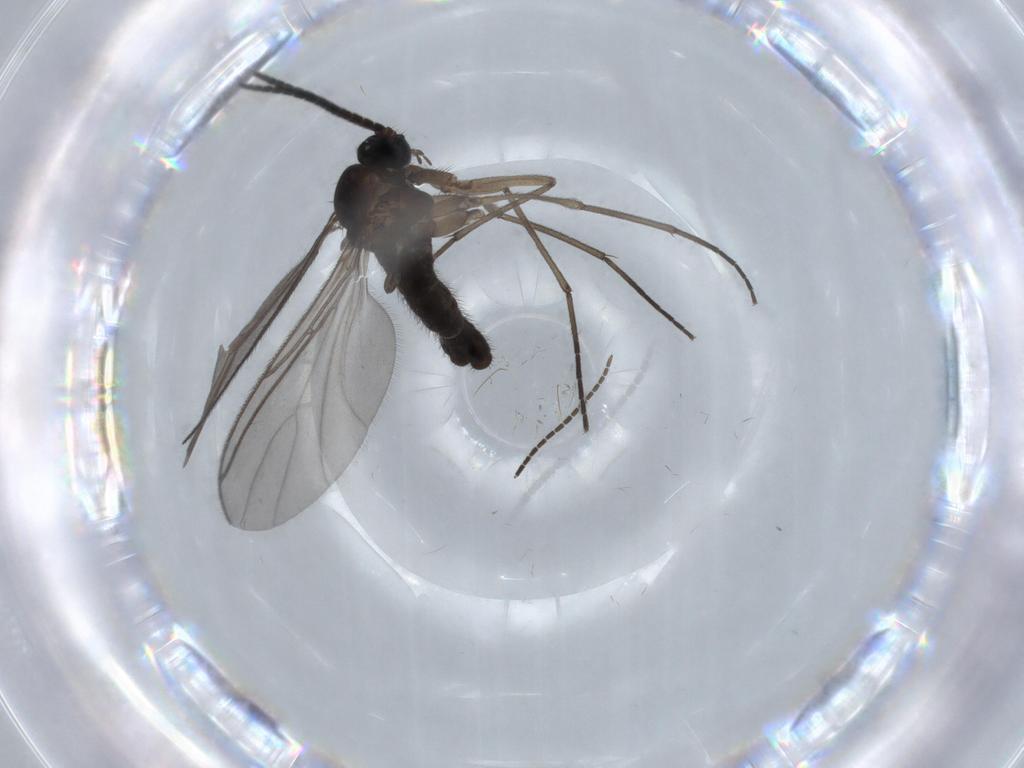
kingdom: Animalia
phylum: Arthropoda
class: Insecta
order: Diptera
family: Sciaridae
